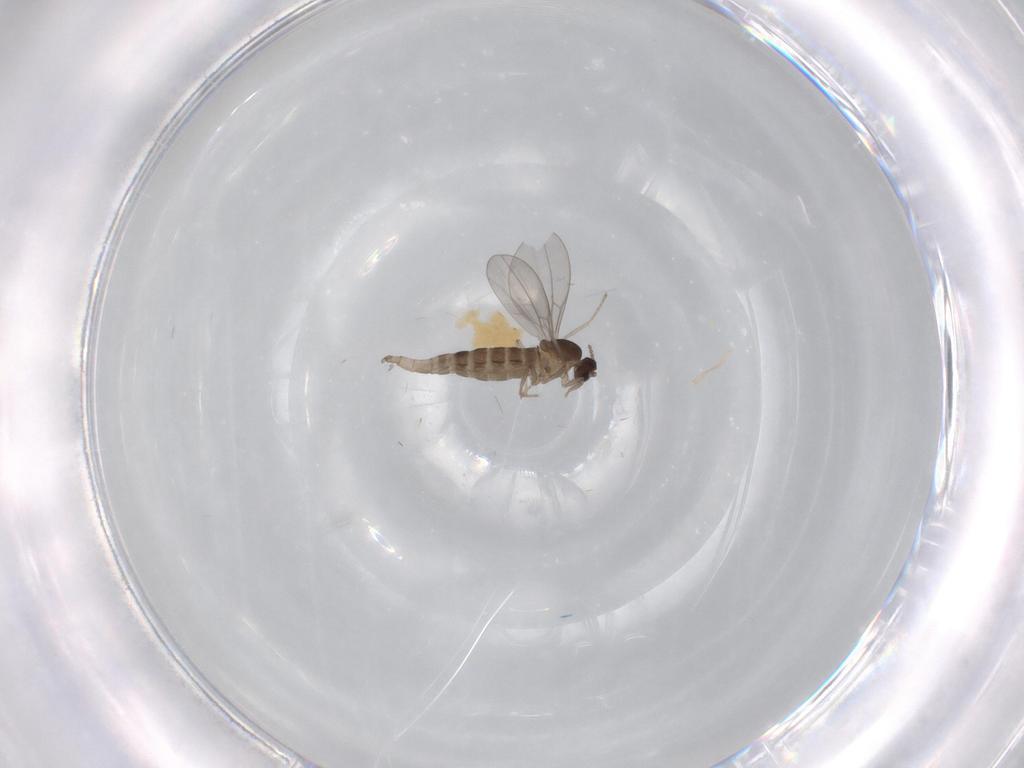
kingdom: Animalia
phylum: Arthropoda
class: Insecta
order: Diptera
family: Cecidomyiidae
